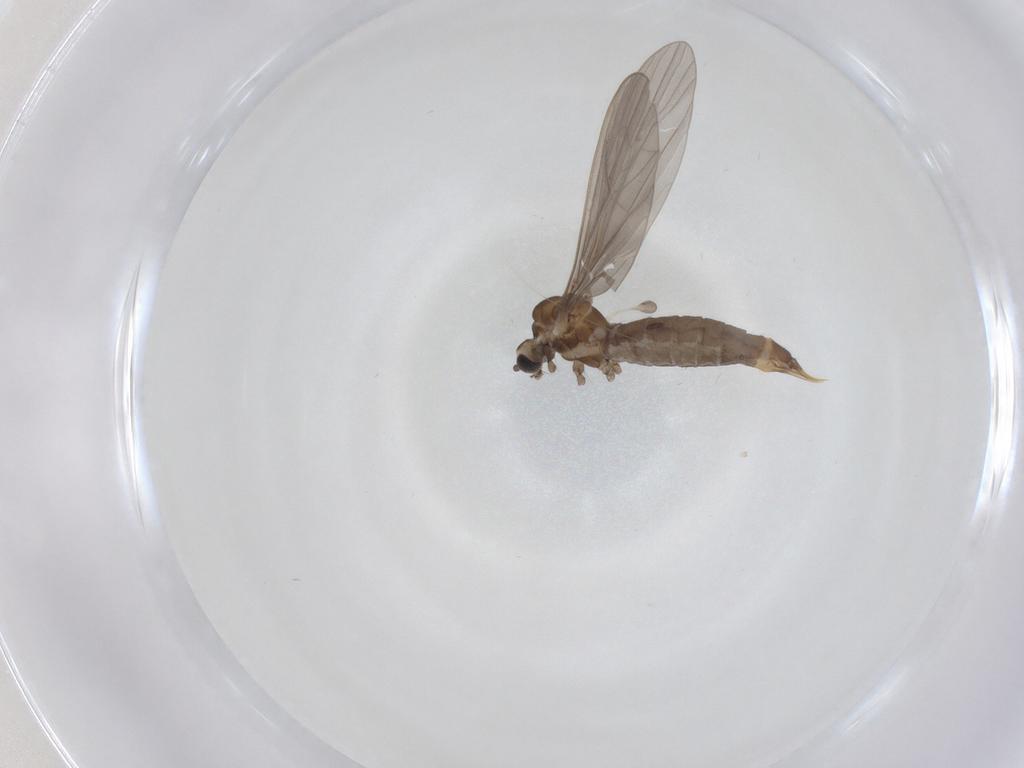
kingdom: Animalia
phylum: Arthropoda
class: Insecta
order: Diptera
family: Limoniidae
